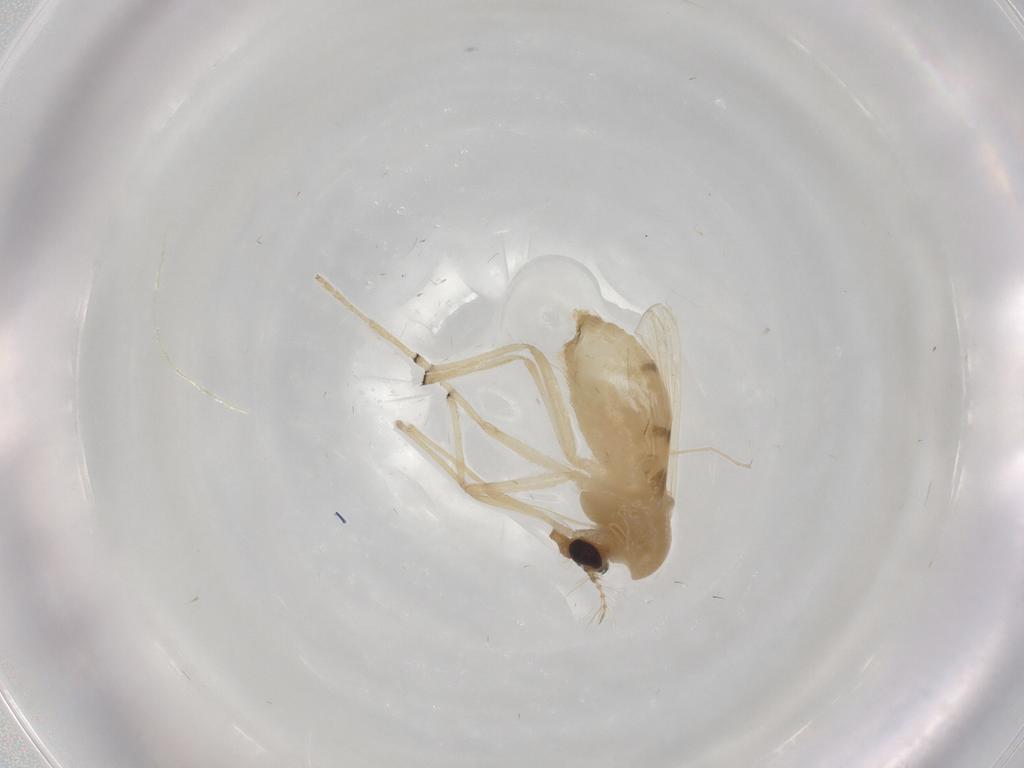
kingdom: Animalia
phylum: Arthropoda
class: Insecta
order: Diptera
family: Chironomidae
